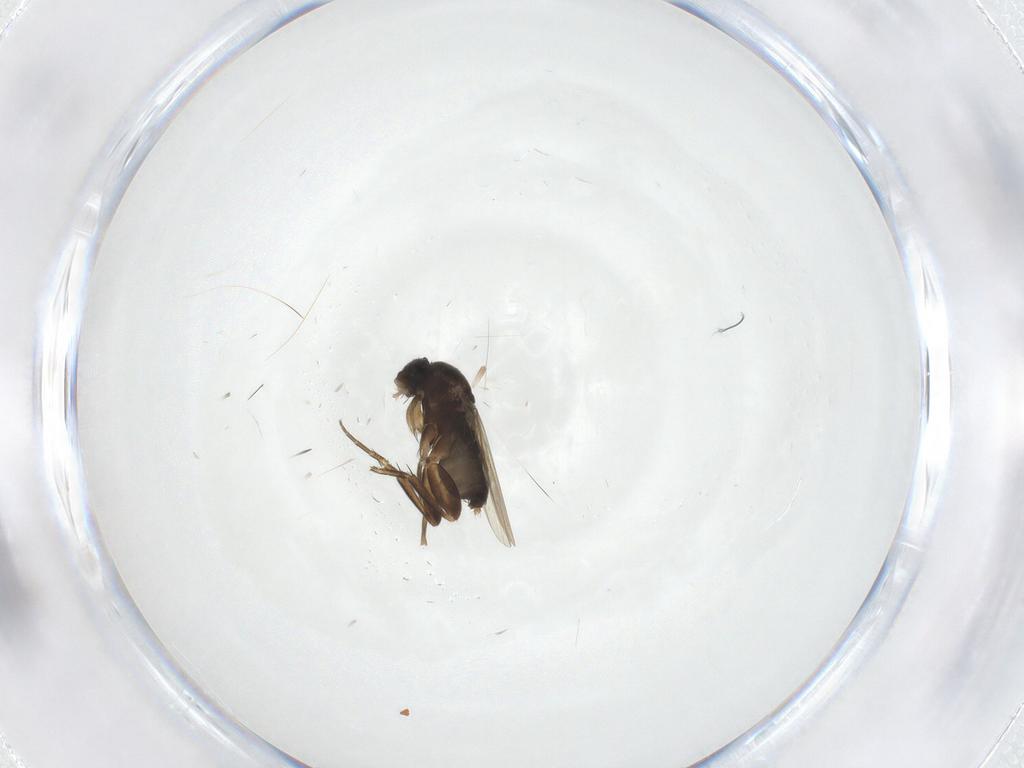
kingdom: Animalia
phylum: Arthropoda
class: Insecta
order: Diptera
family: Phoridae
